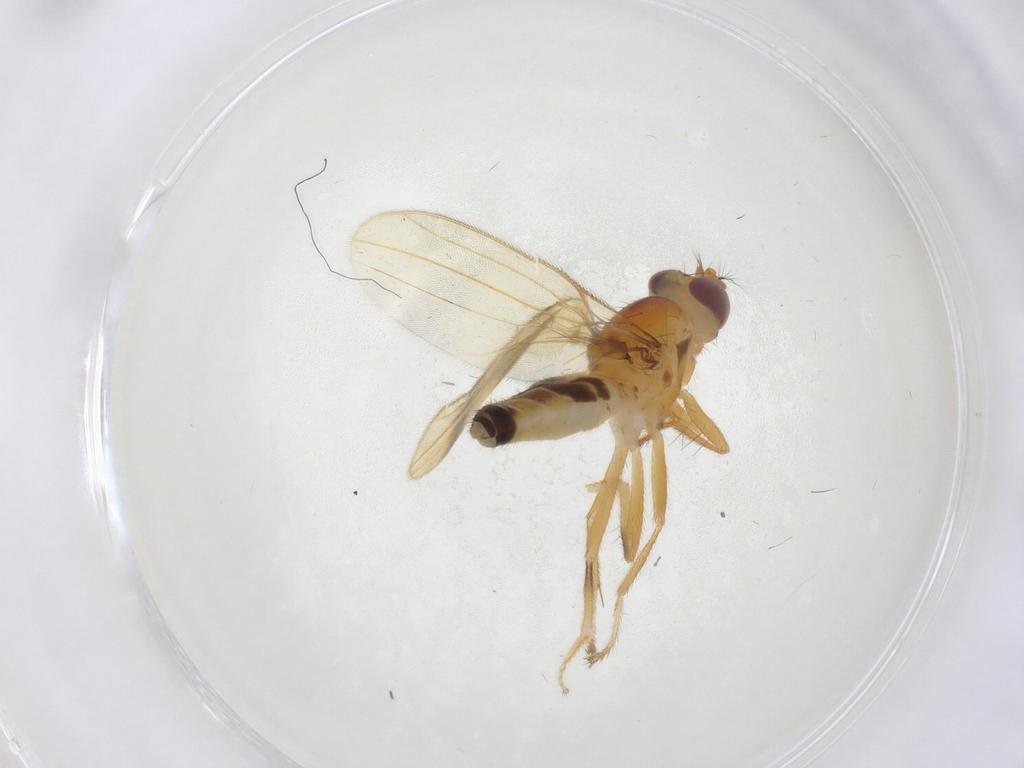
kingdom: Animalia
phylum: Arthropoda
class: Insecta
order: Diptera
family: Periscelididae
